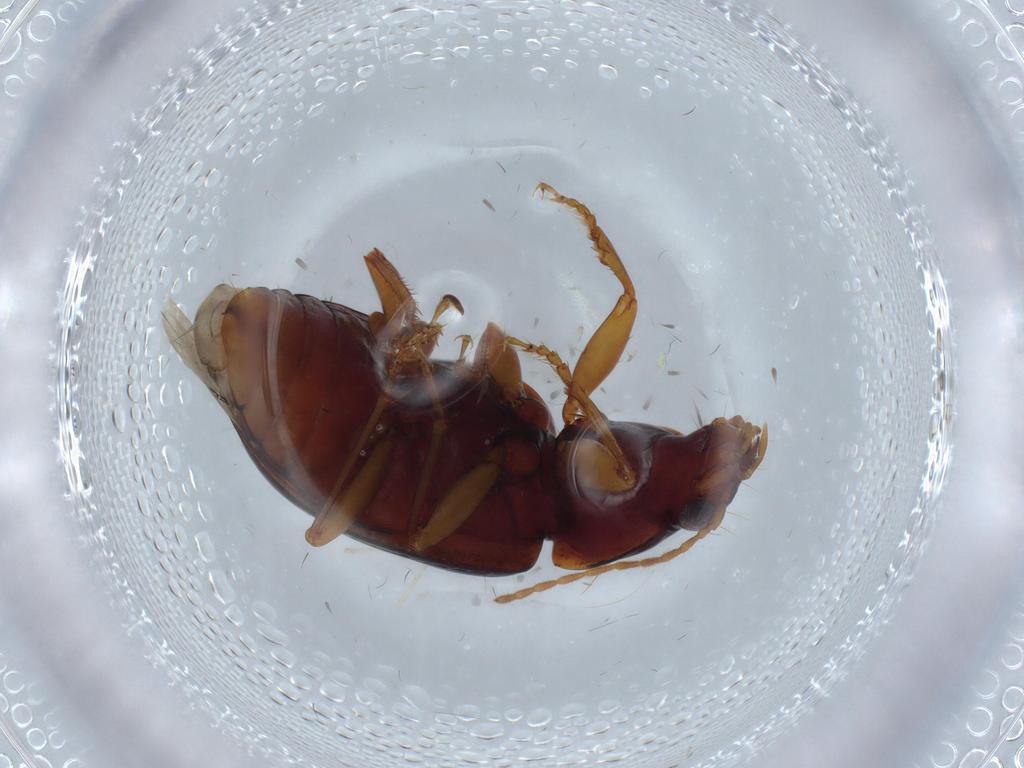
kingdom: Animalia
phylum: Arthropoda
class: Insecta
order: Coleoptera
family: Carabidae
